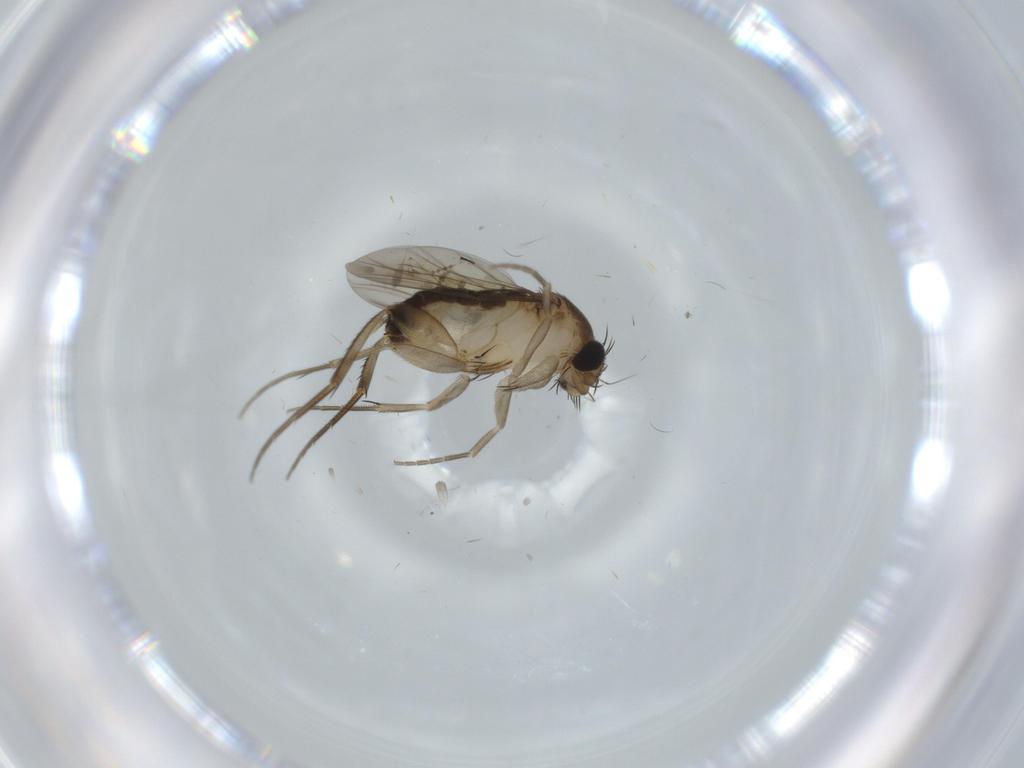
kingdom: Animalia
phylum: Arthropoda
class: Insecta
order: Diptera
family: Phoridae
